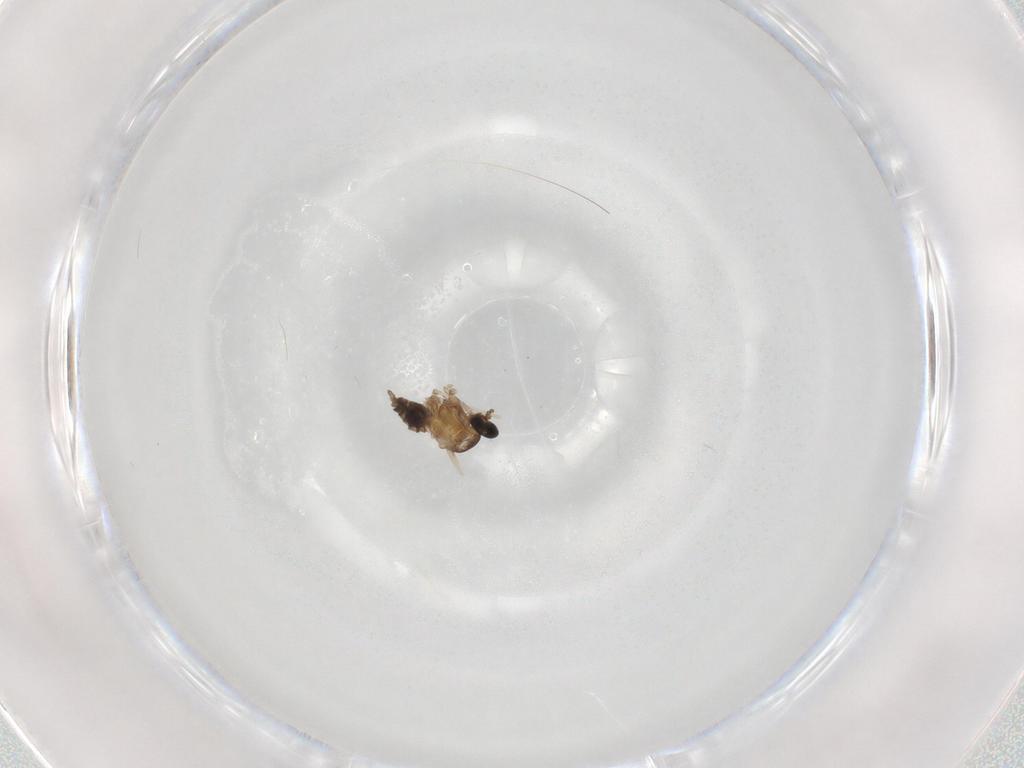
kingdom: Animalia
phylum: Arthropoda
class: Insecta
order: Diptera
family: Cecidomyiidae
